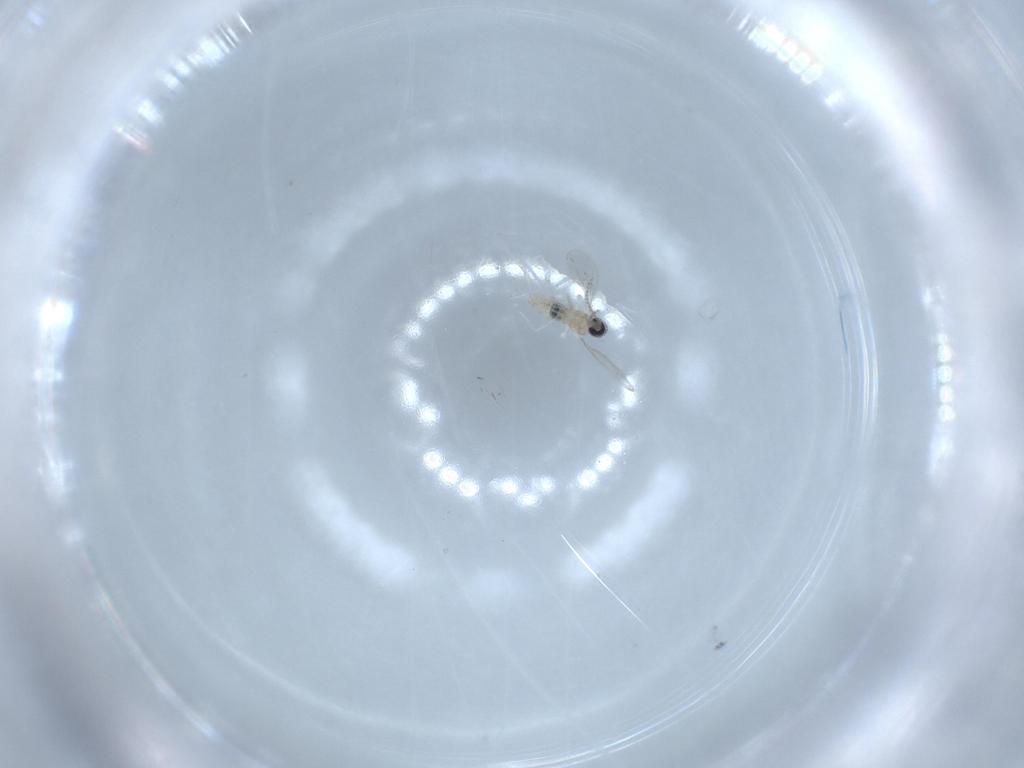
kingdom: Animalia
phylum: Arthropoda
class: Insecta
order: Diptera
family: Cecidomyiidae
